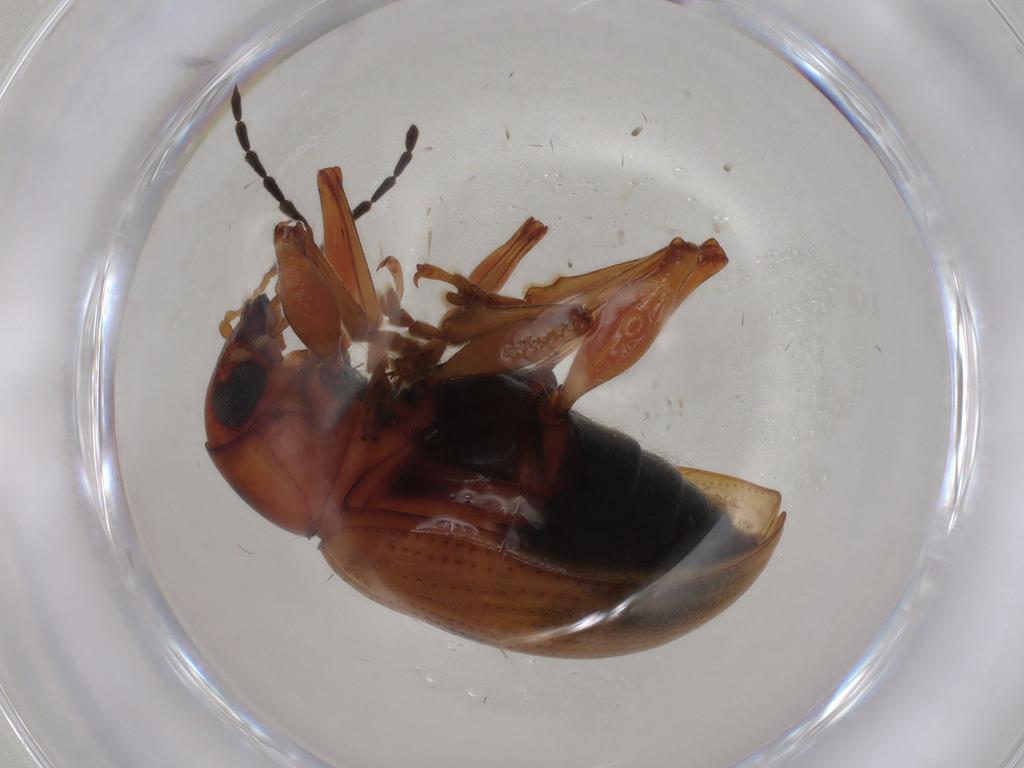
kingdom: Animalia
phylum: Arthropoda
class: Insecta
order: Coleoptera
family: Chrysomelidae
